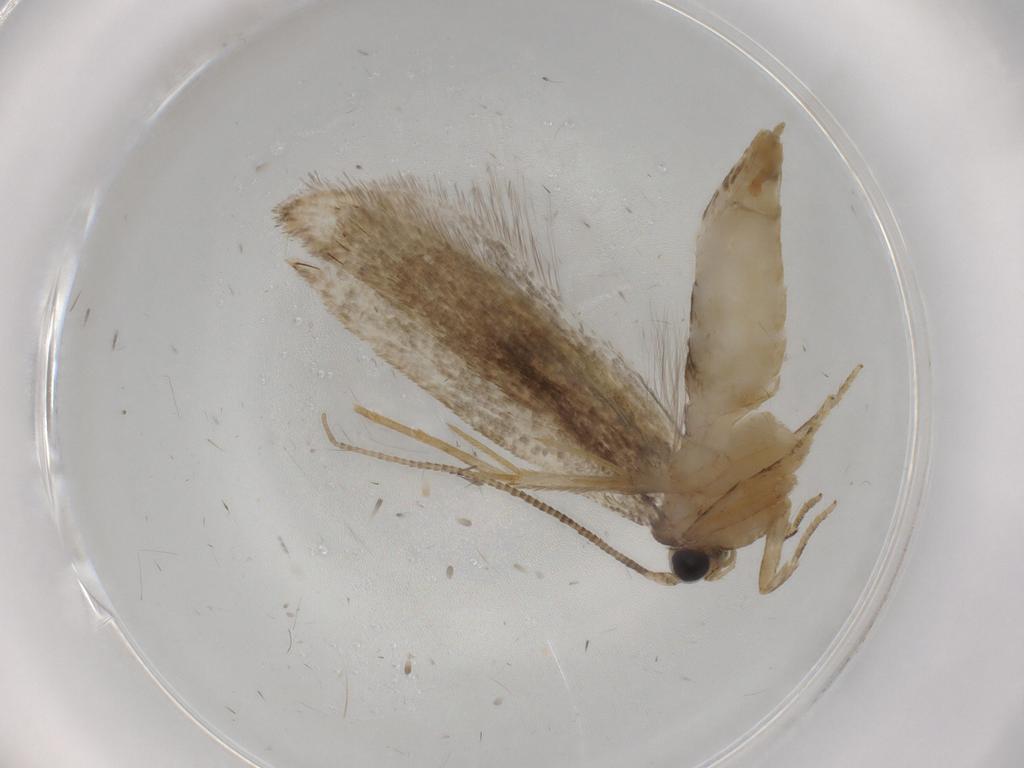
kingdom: Animalia
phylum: Arthropoda
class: Insecta
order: Lepidoptera
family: Tineidae
